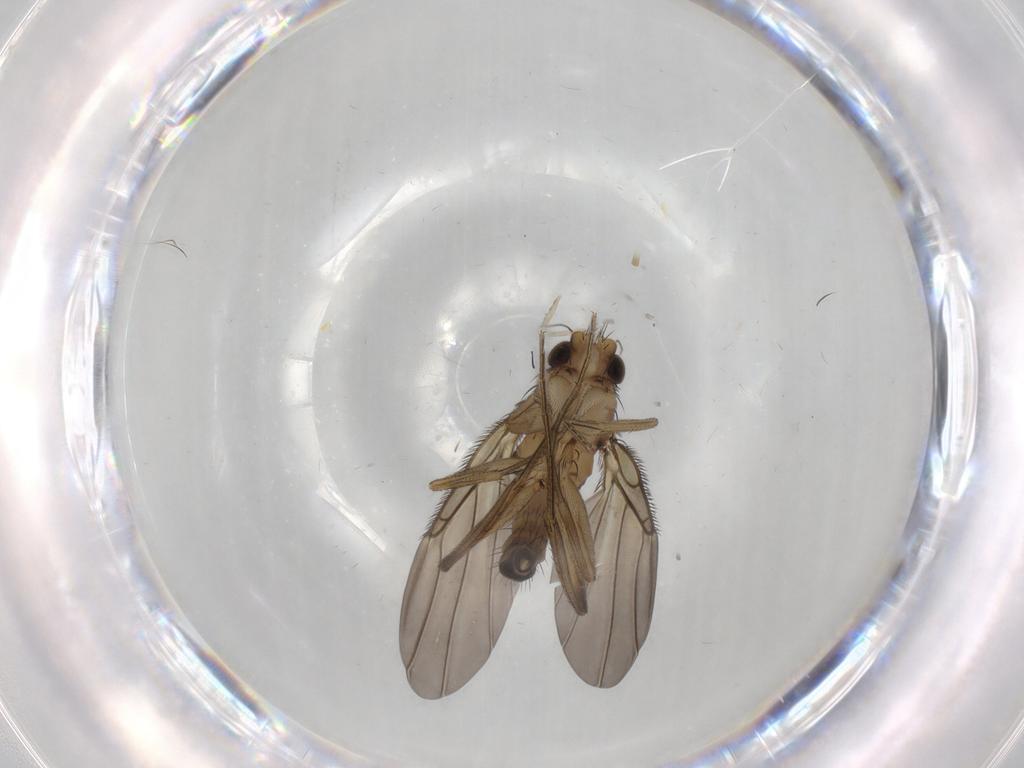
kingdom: Animalia
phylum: Arthropoda
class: Insecta
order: Diptera
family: Phoridae
